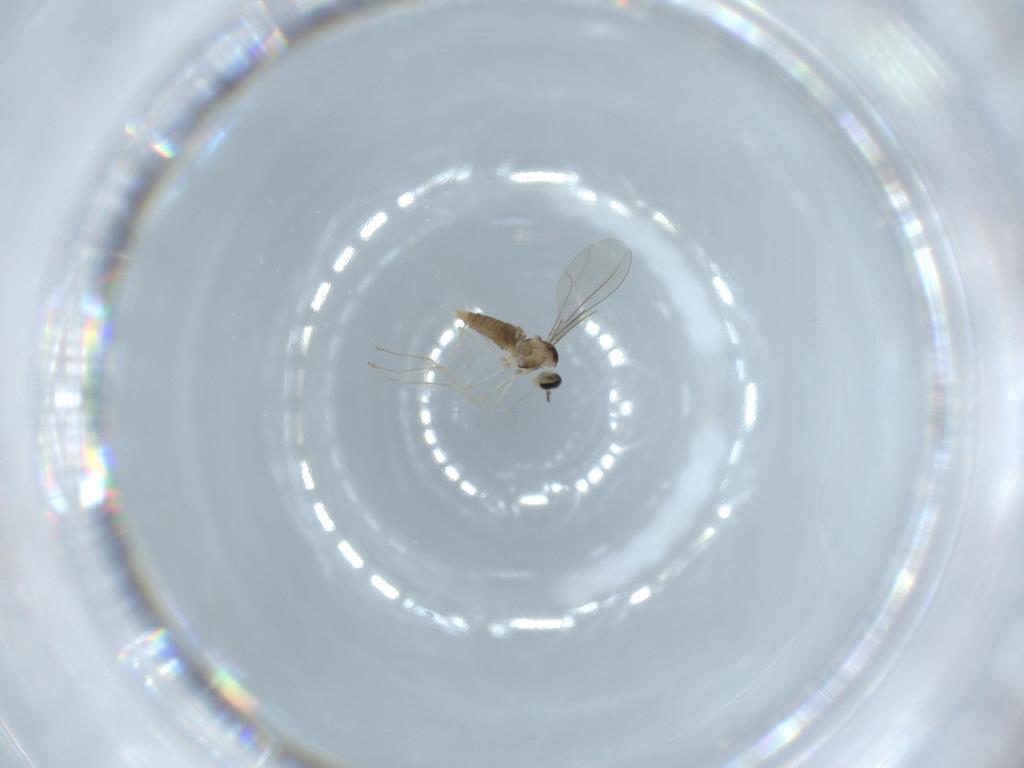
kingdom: Animalia
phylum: Arthropoda
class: Insecta
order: Diptera
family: Cecidomyiidae
